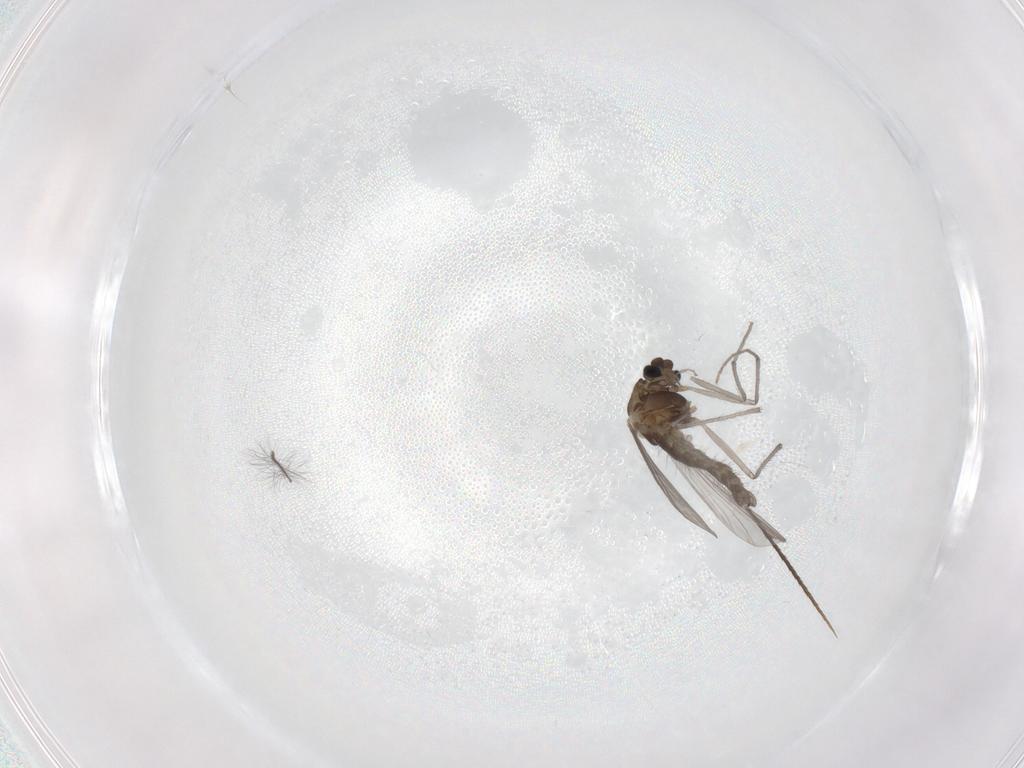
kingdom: Animalia
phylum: Arthropoda
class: Insecta
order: Diptera
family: Chironomidae
